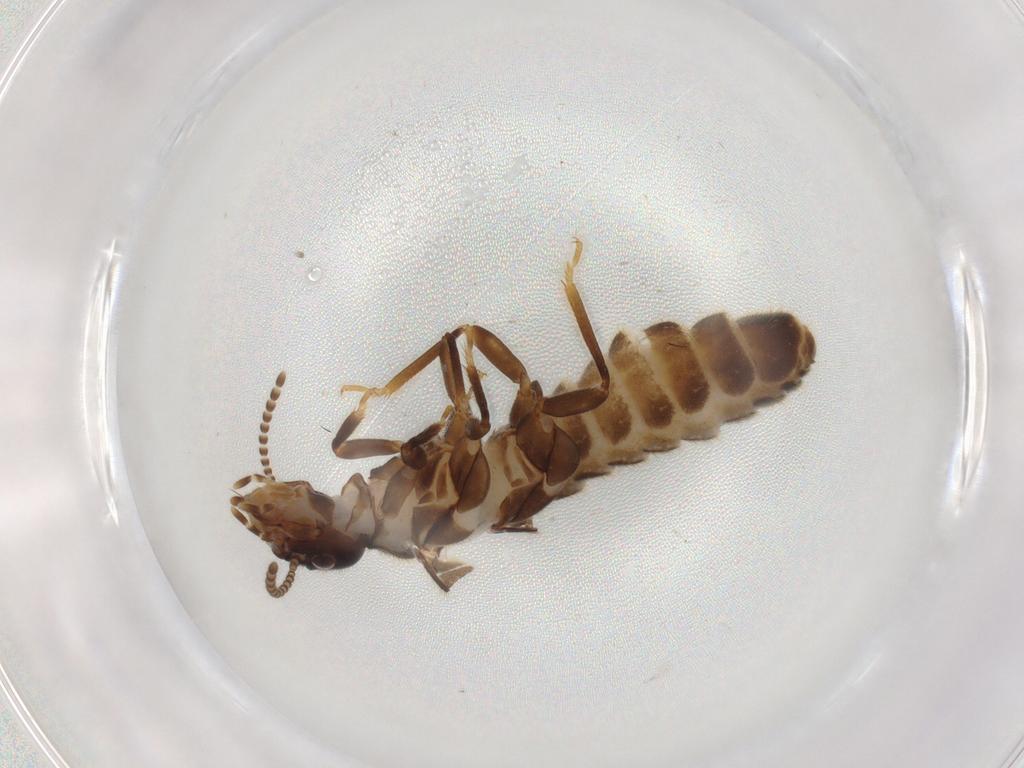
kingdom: Animalia
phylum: Arthropoda
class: Insecta
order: Blattodea
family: Termitidae
